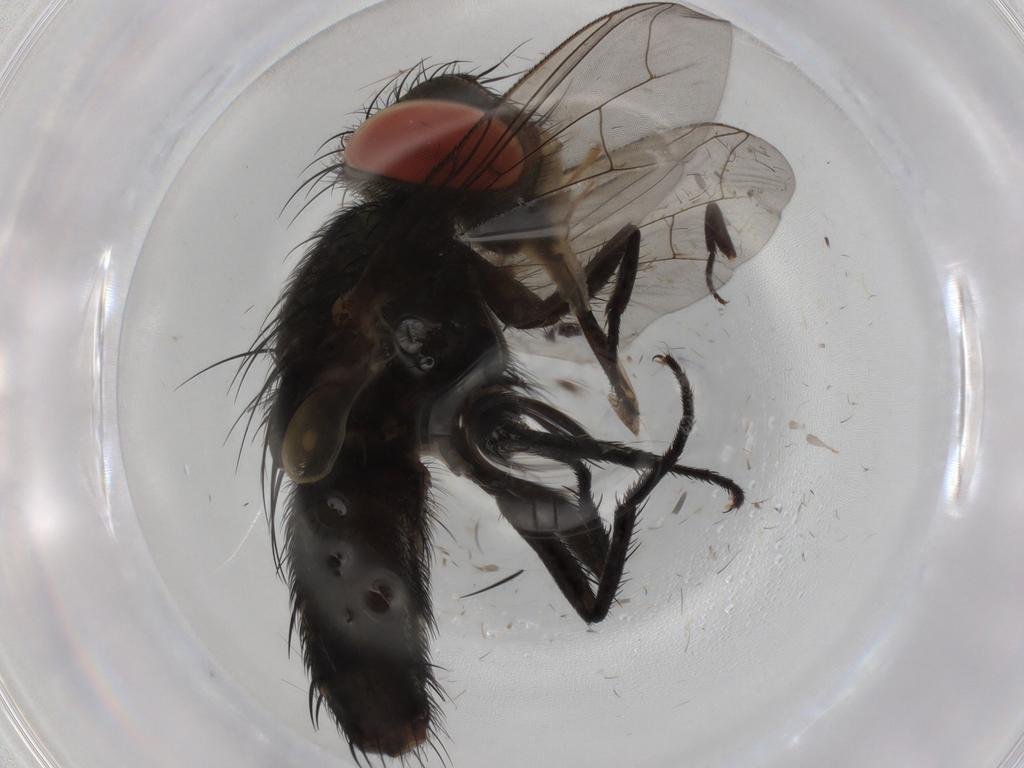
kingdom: Animalia
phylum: Arthropoda
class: Insecta
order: Diptera
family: Sarcophagidae
